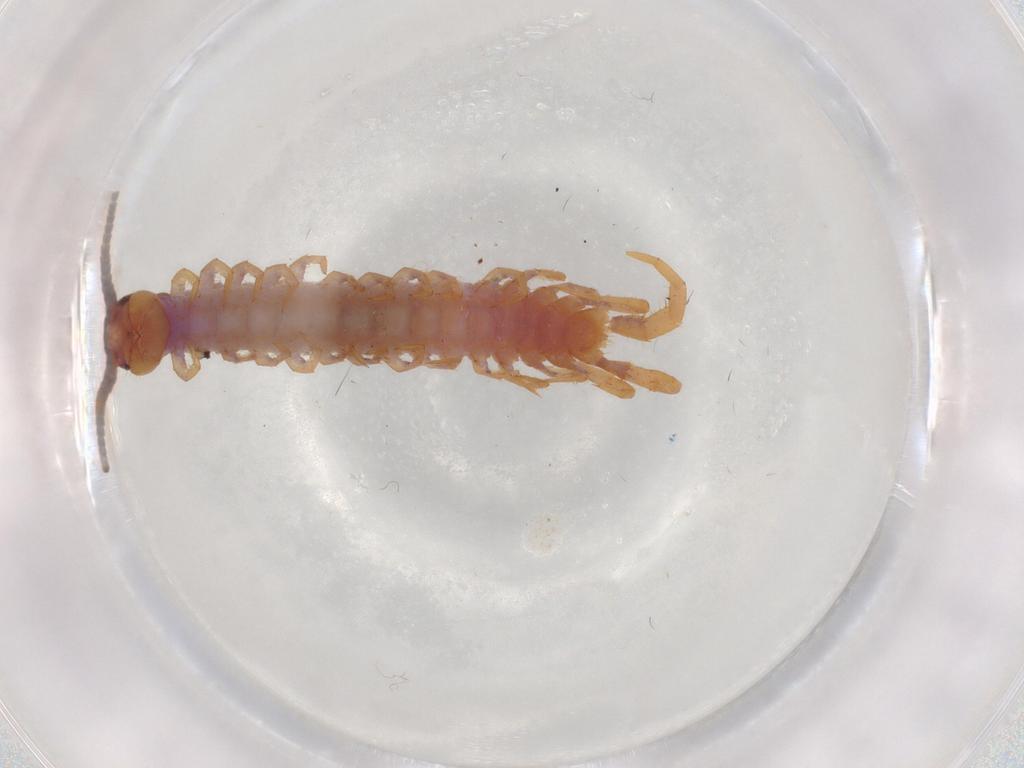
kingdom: Animalia
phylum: Arthropoda
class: Chilopoda
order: Lithobiomorpha
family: Lithobiidae
